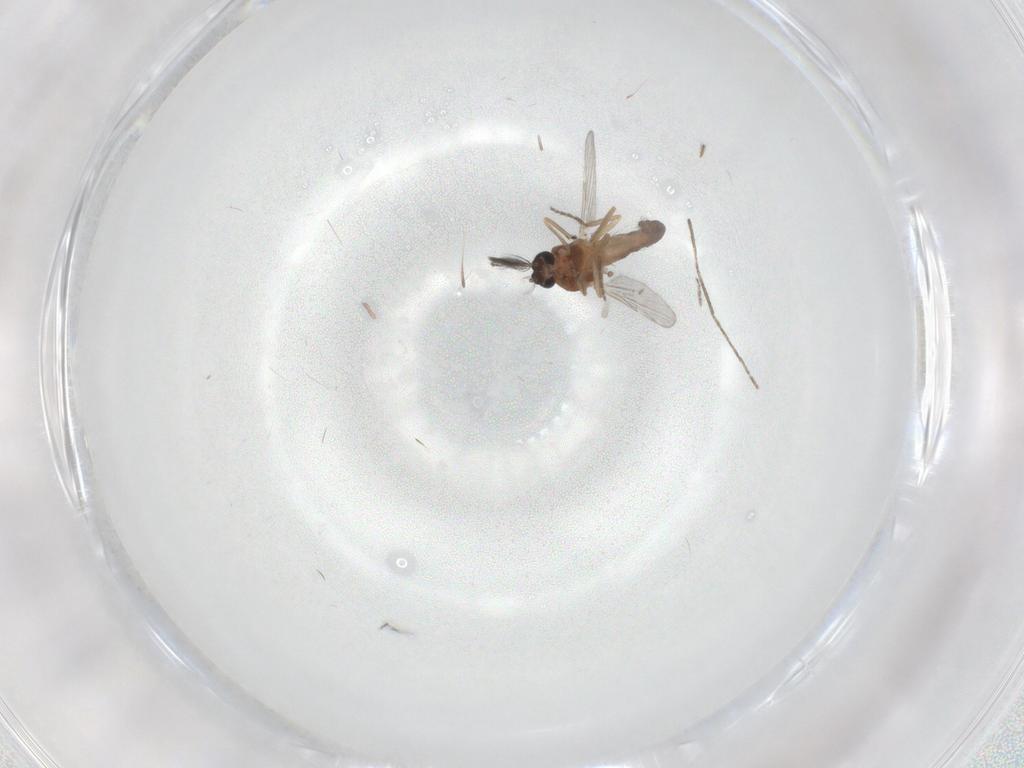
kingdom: Animalia
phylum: Arthropoda
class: Insecta
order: Diptera
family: Ceratopogonidae
